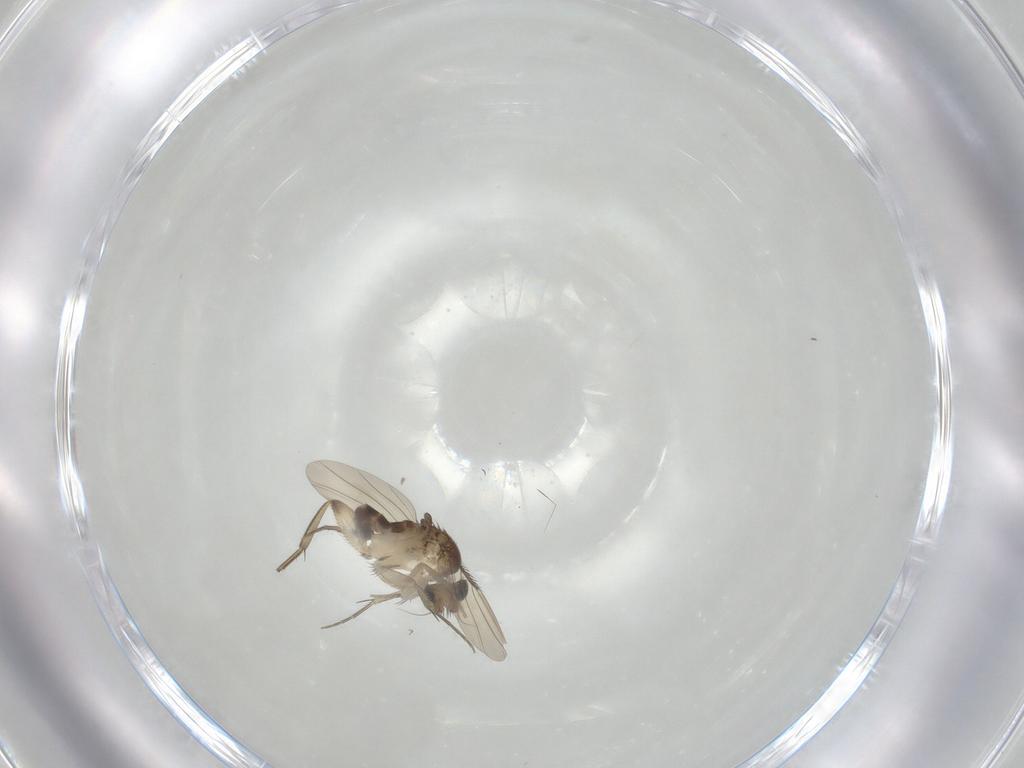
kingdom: Animalia
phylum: Arthropoda
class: Insecta
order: Diptera
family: Phoridae
